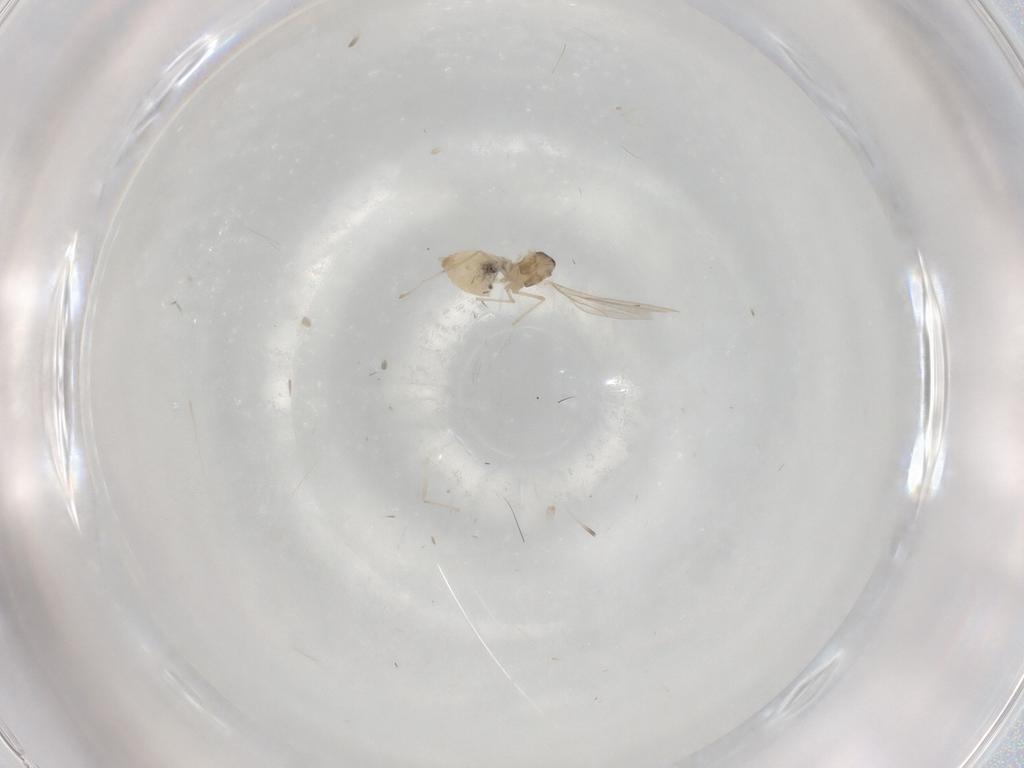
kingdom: Animalia
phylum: Arthropoda
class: Insecta
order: Diptera
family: Cecidomyiidae
